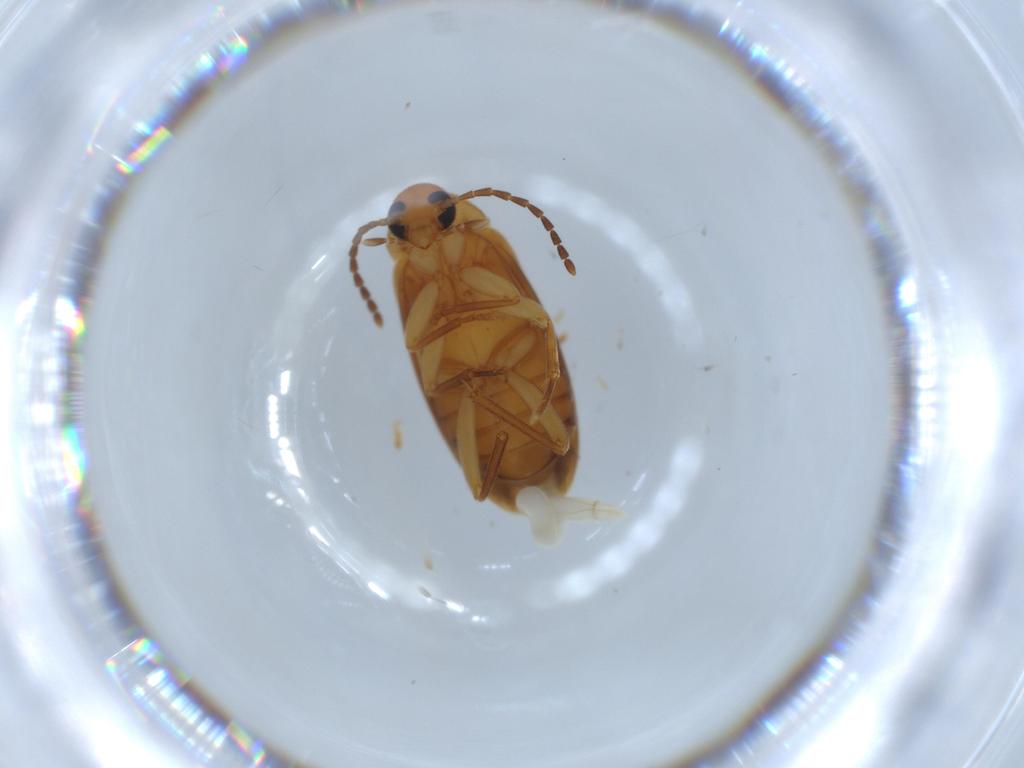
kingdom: Animalia
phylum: Arthropoda
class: Insecta
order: Coleoptera
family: Scraptiidae
